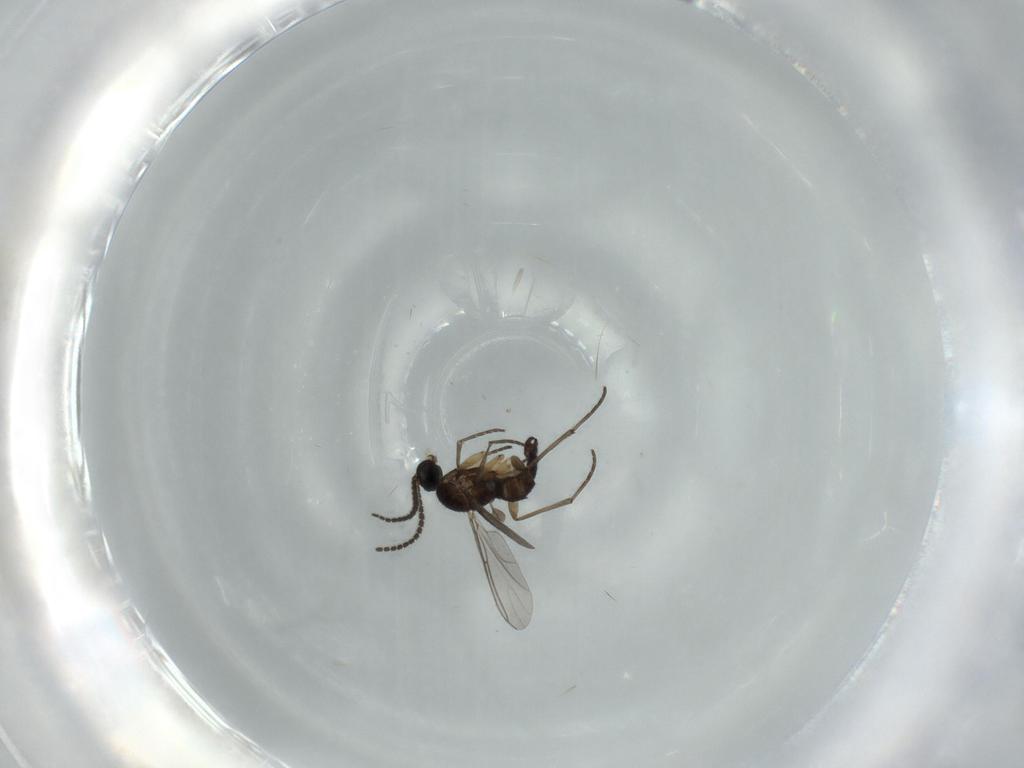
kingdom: Animalia
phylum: Arthropoda
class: Insecta
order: Diptera
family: Sciaridae
